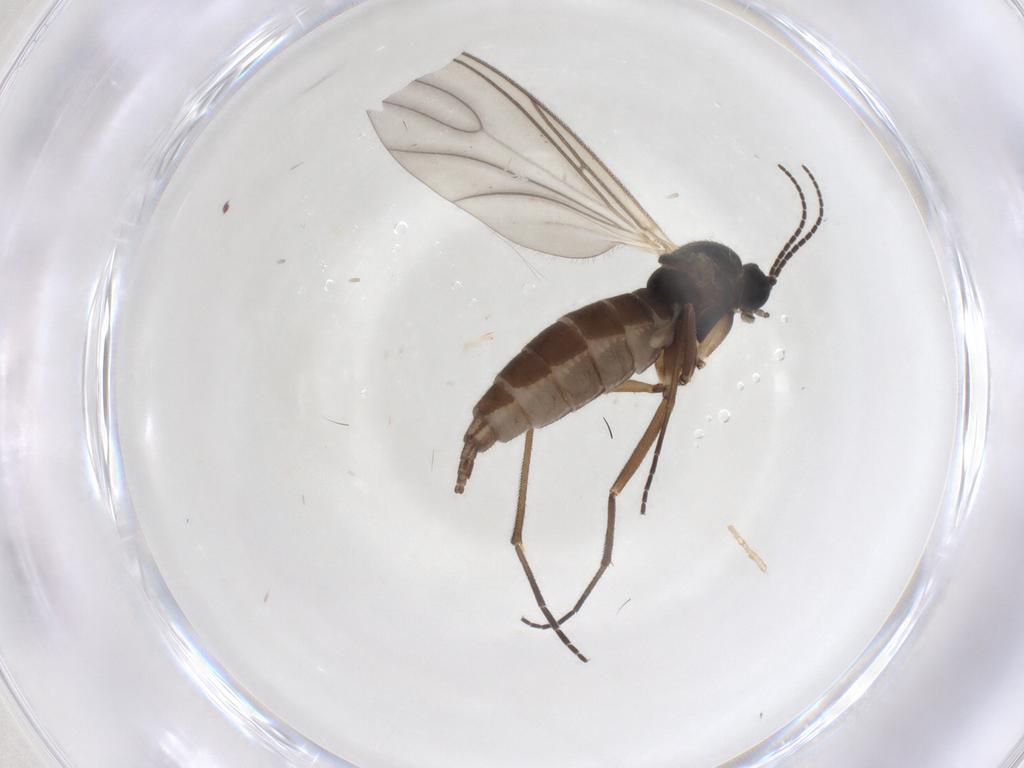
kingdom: Animalia
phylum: Arthropoda
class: Insecta
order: Diptera
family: Sciaridae
